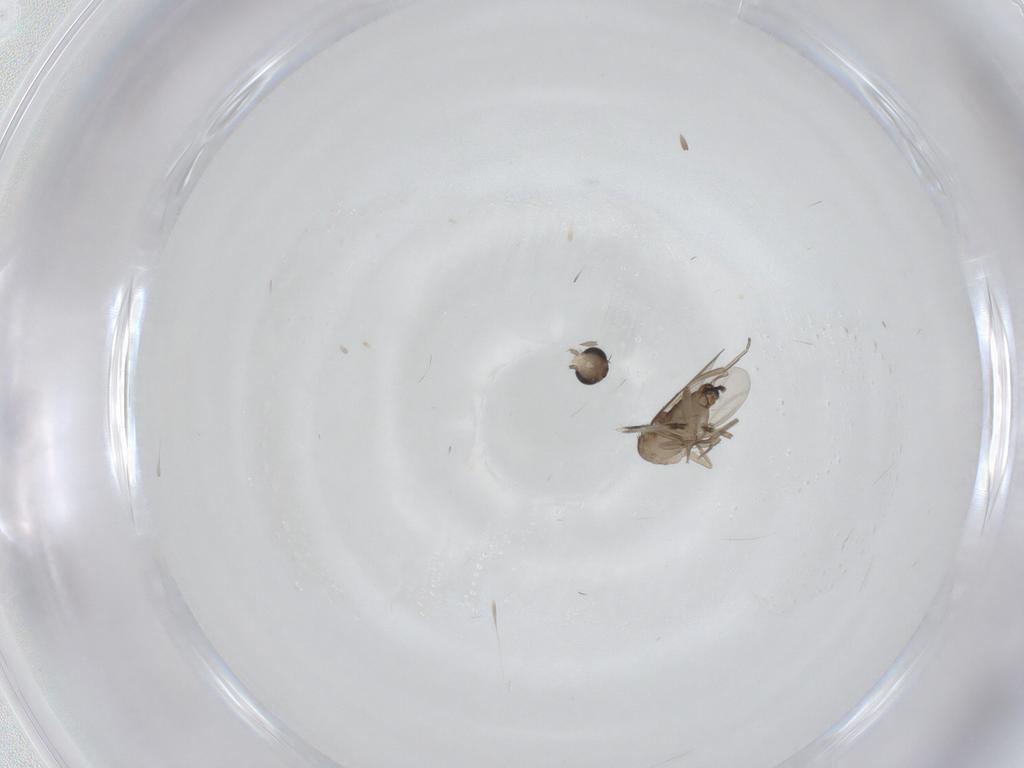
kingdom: Animalia
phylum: Arthropoda
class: Insecta
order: Diptera
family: Phoridae
